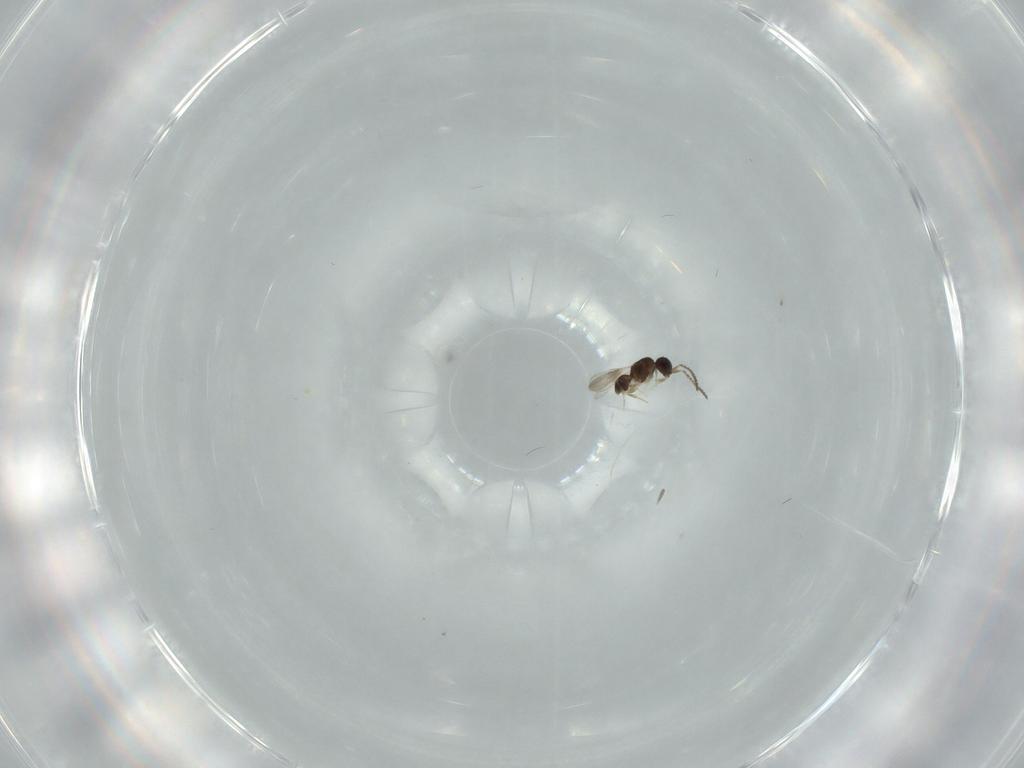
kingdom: Animalia
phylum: Arthropoda
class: Insecta
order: Hymenoptera
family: Ceraphronidae
